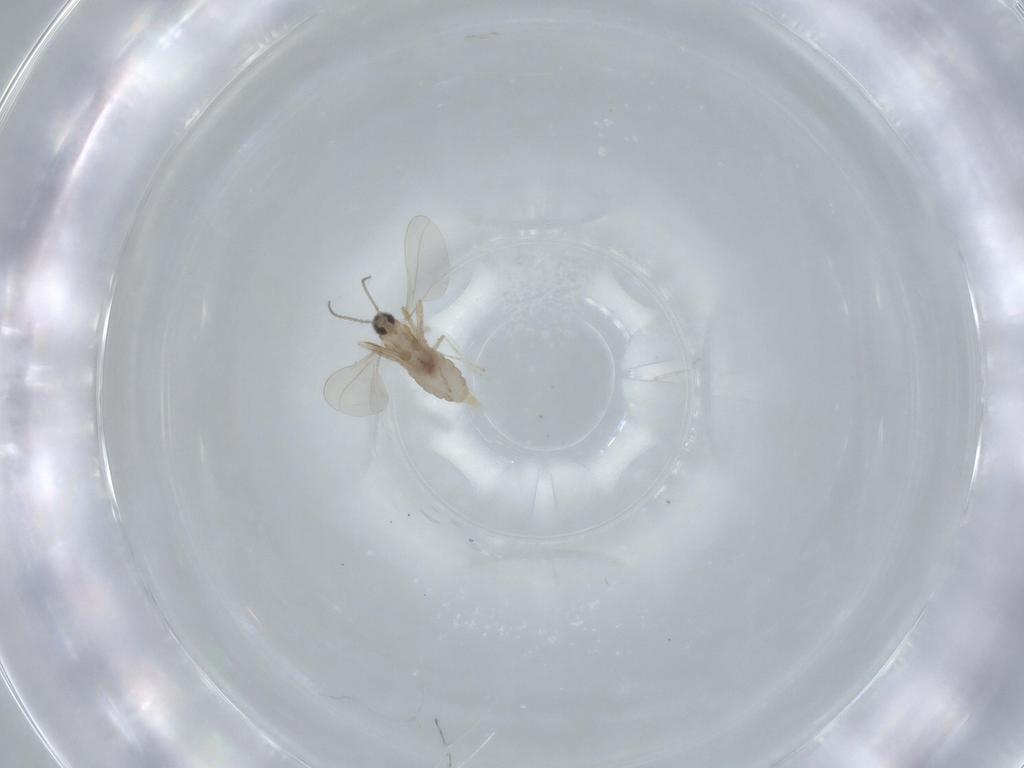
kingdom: Animalia
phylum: Arthropoda
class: Insecta
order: Diptera
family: Cecidomyiidae
